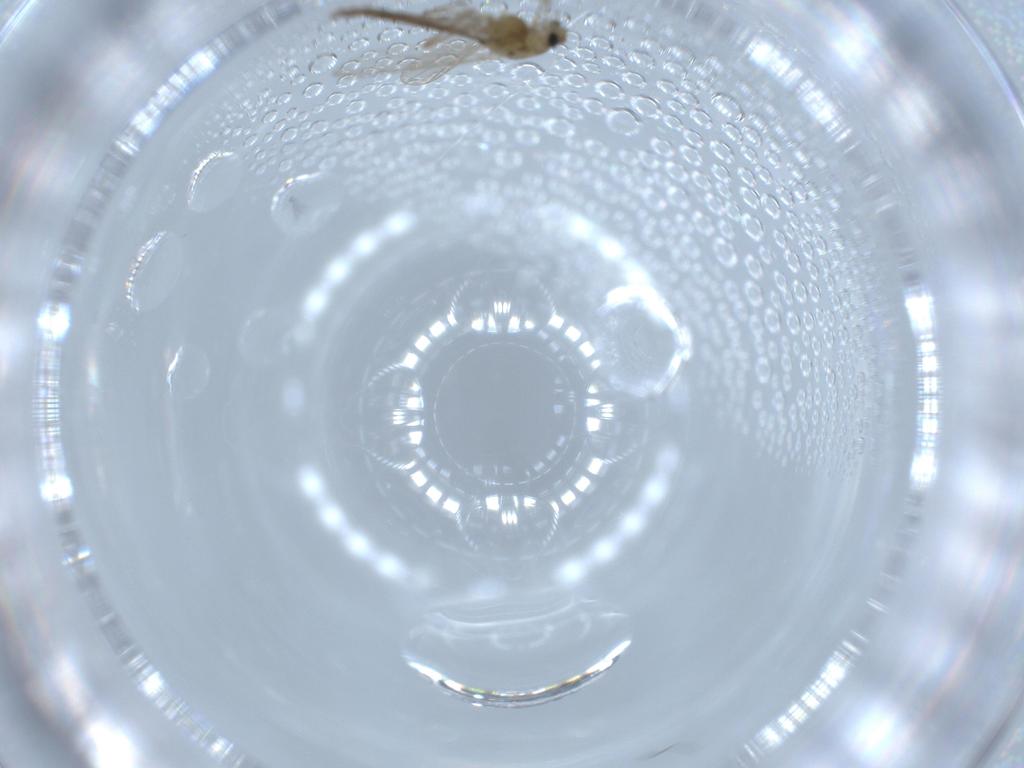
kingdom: Animalia
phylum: Arthropoda
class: Insecta
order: Diptera
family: Chironomidae
